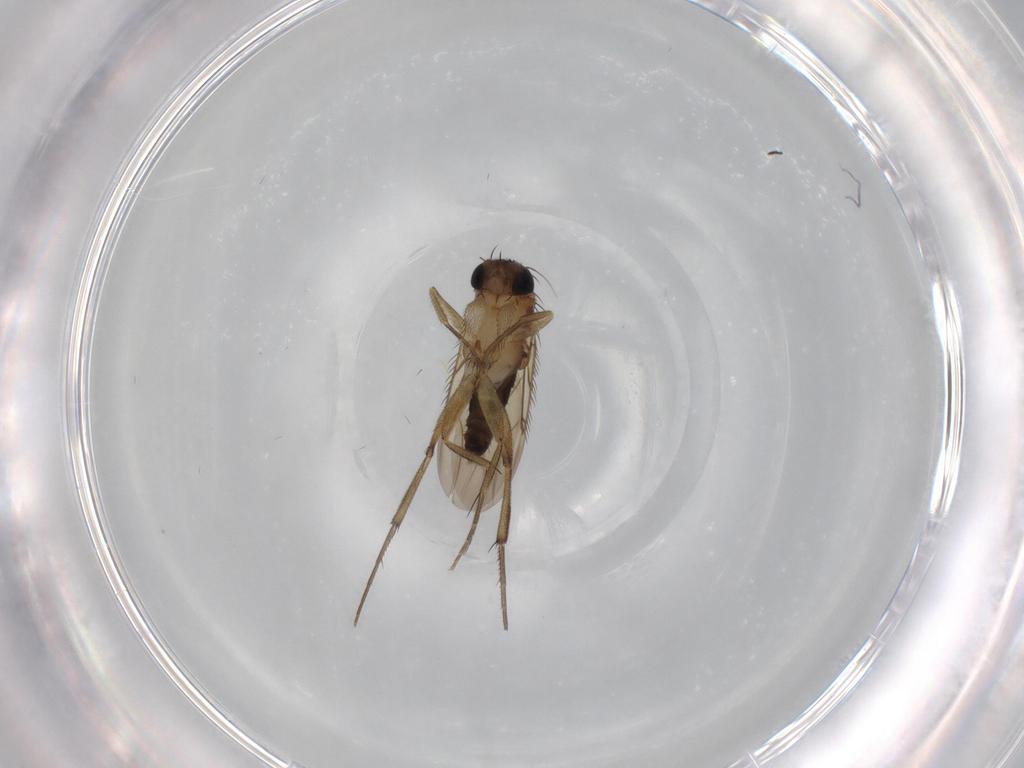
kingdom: Animalia
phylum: Arthropoda
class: Insecta
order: Diptera
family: Phoridae
